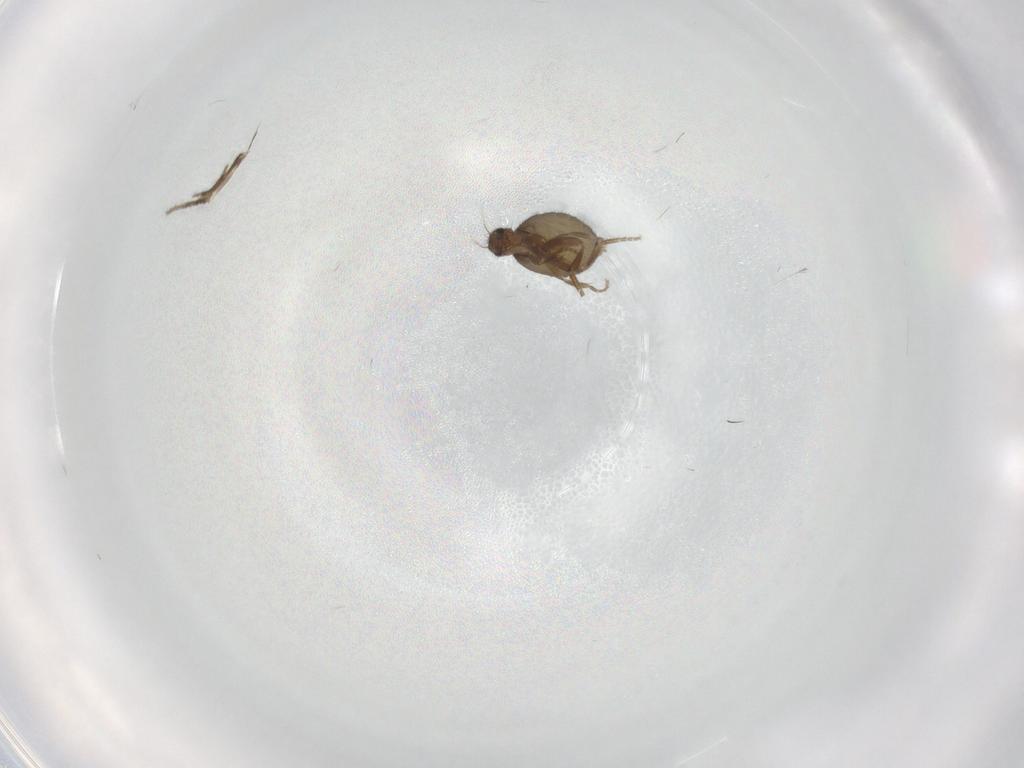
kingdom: Animalia
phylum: Arthropoda
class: Insecta
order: Diptera
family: Phoridae
